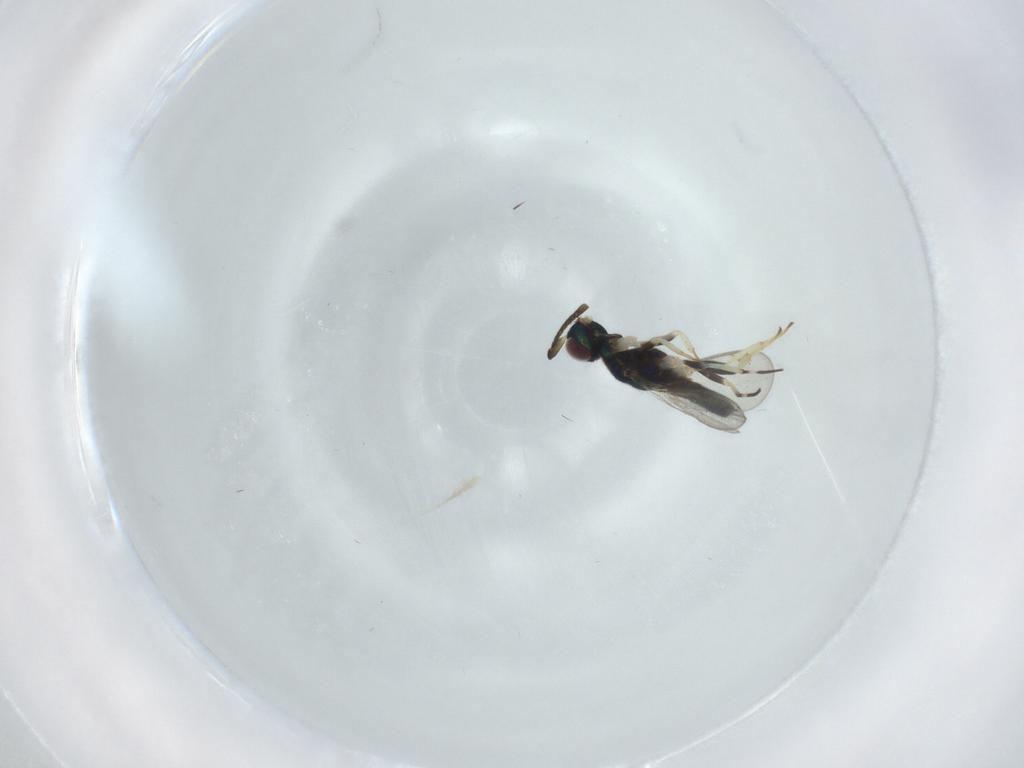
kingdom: Animalia
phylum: Arthropoda
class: Insecta
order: Hymenoptera
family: Eupelmidae
